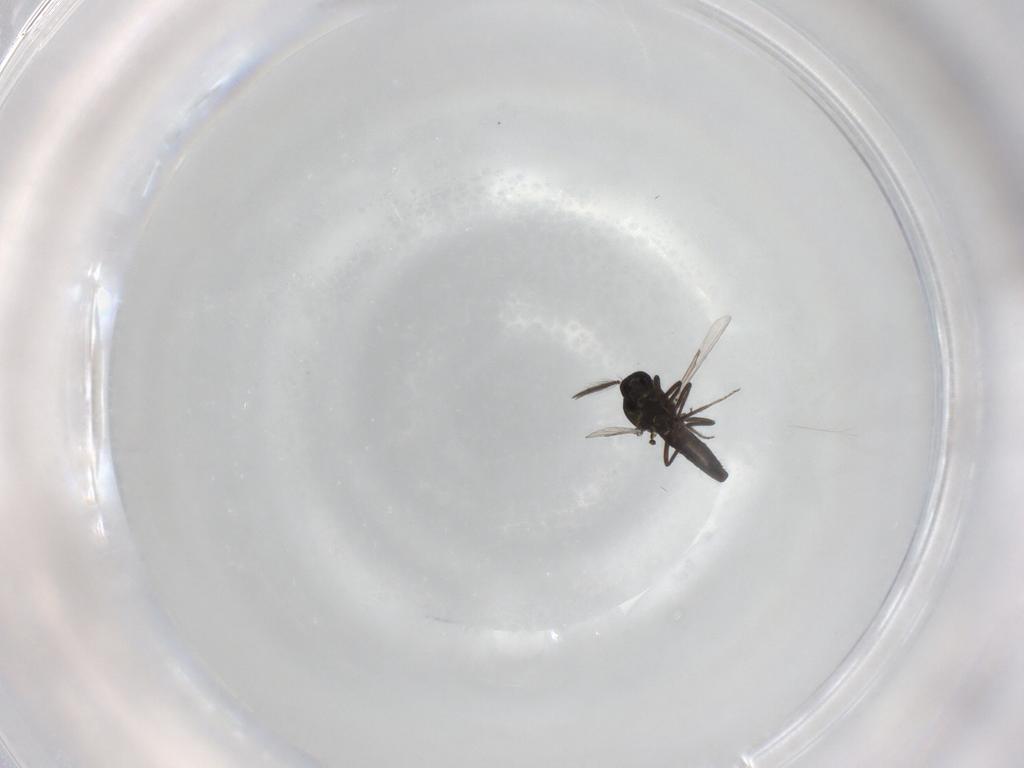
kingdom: Animalia
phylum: Arthropoda
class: Insecta
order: Diptera
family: Ceratopogonidae
